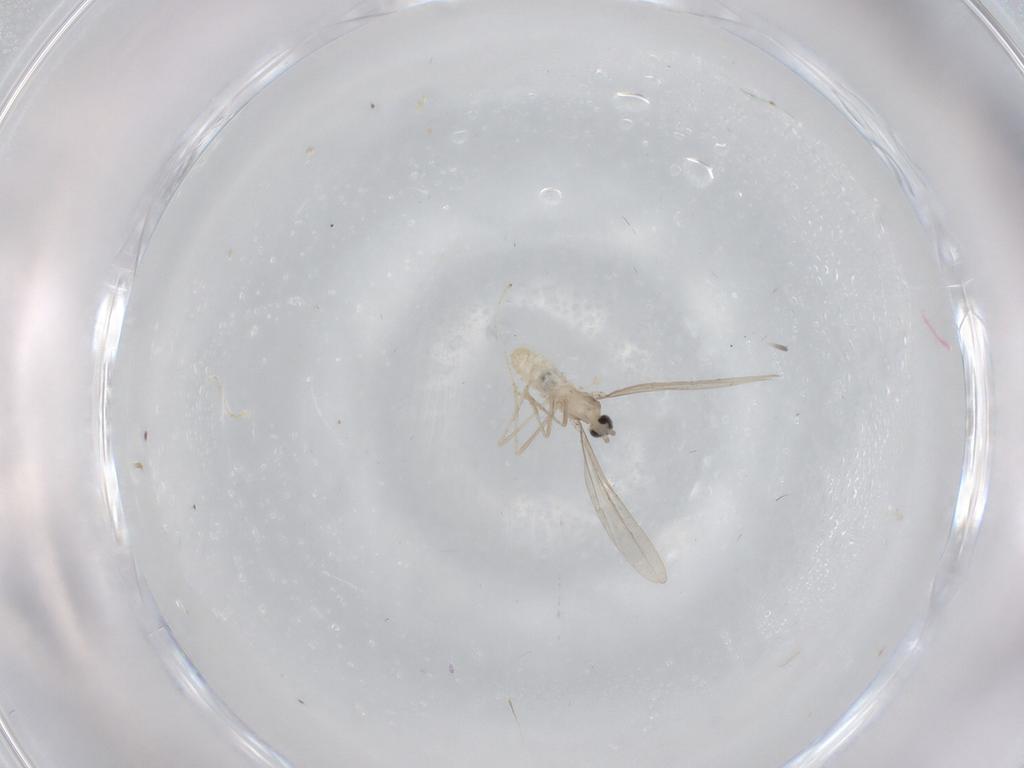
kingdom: Animalia
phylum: Arthropoda
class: Insecta
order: Diptera
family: Cecidomyiidae
